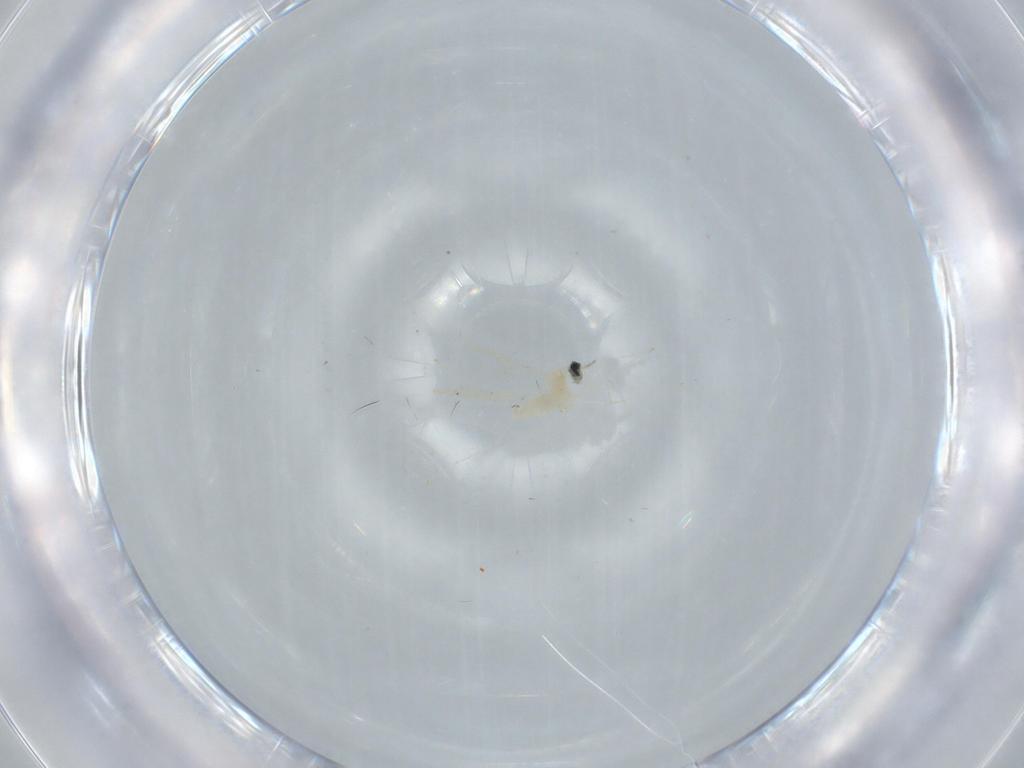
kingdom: Animalia
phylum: Arthropoda
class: Insecta
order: Diptera
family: Cecidomyiidae
